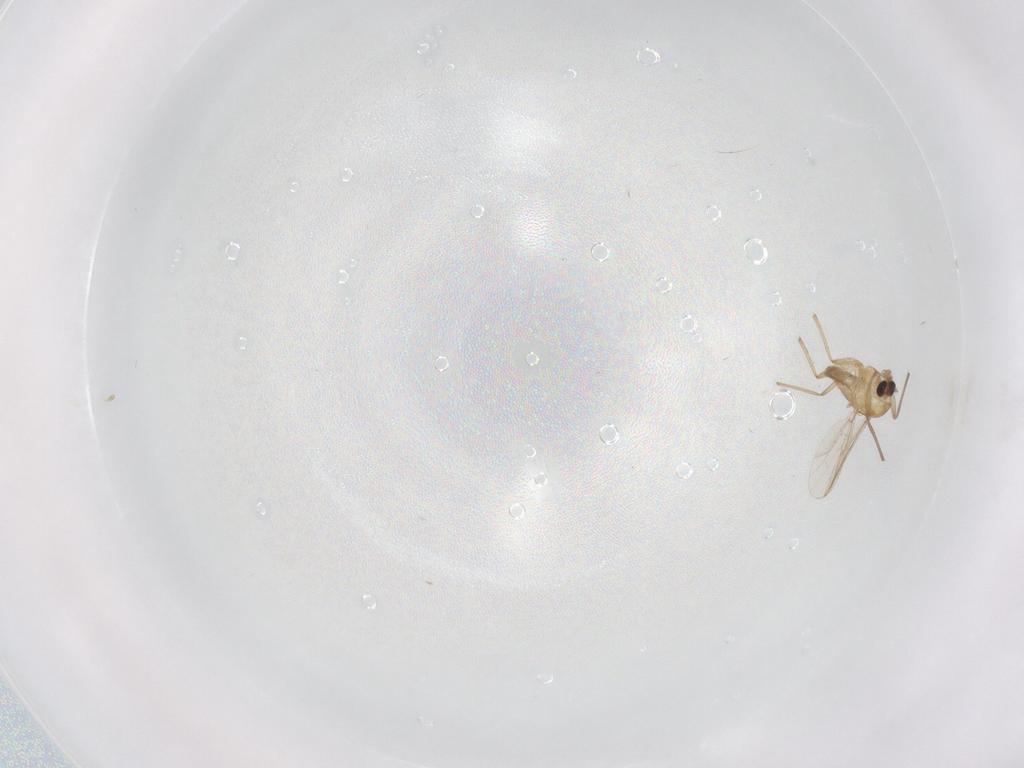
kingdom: Animalia
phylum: Arthropoda
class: Insecta
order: Diptera
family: Chironomidae
